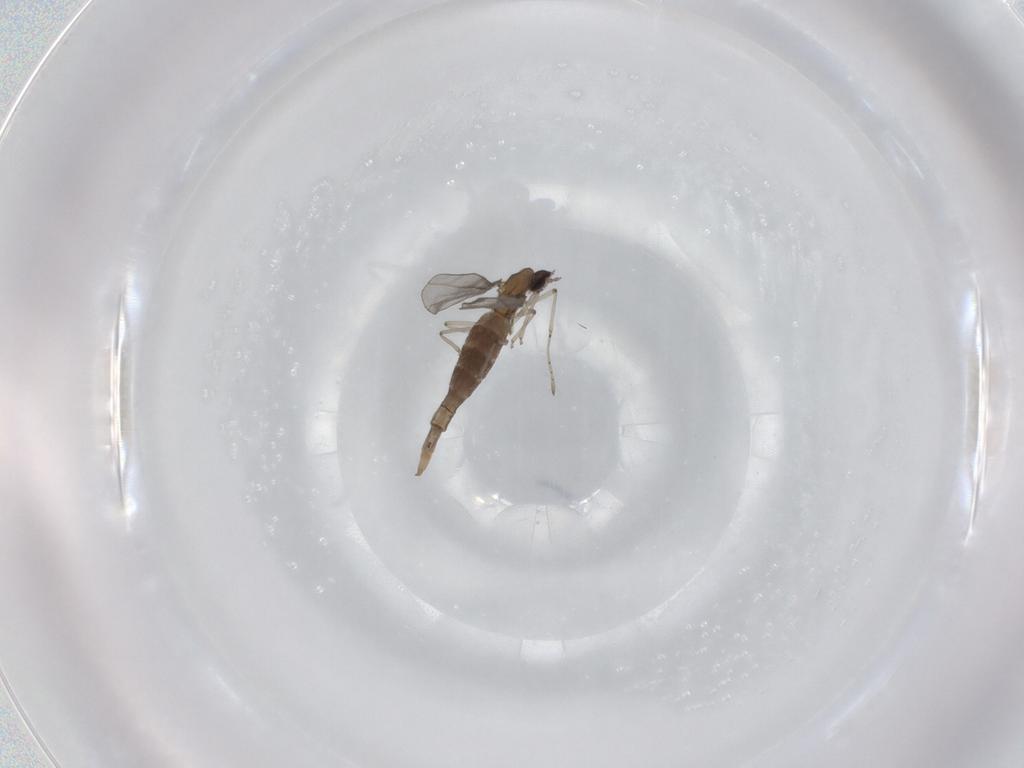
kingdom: Animalia
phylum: Arthropoda
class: Insecta
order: Diptera
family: Cecidomyiidae
